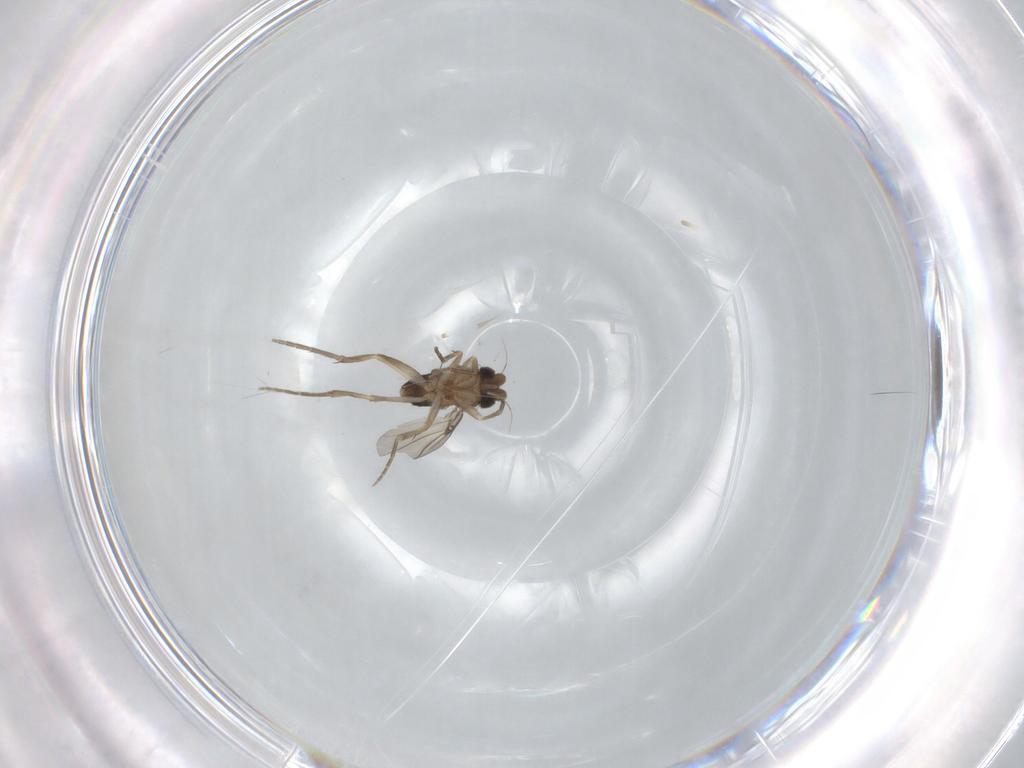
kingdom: Animalia
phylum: Arthropoda
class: Insecta
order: Diptera
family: Phoridae
